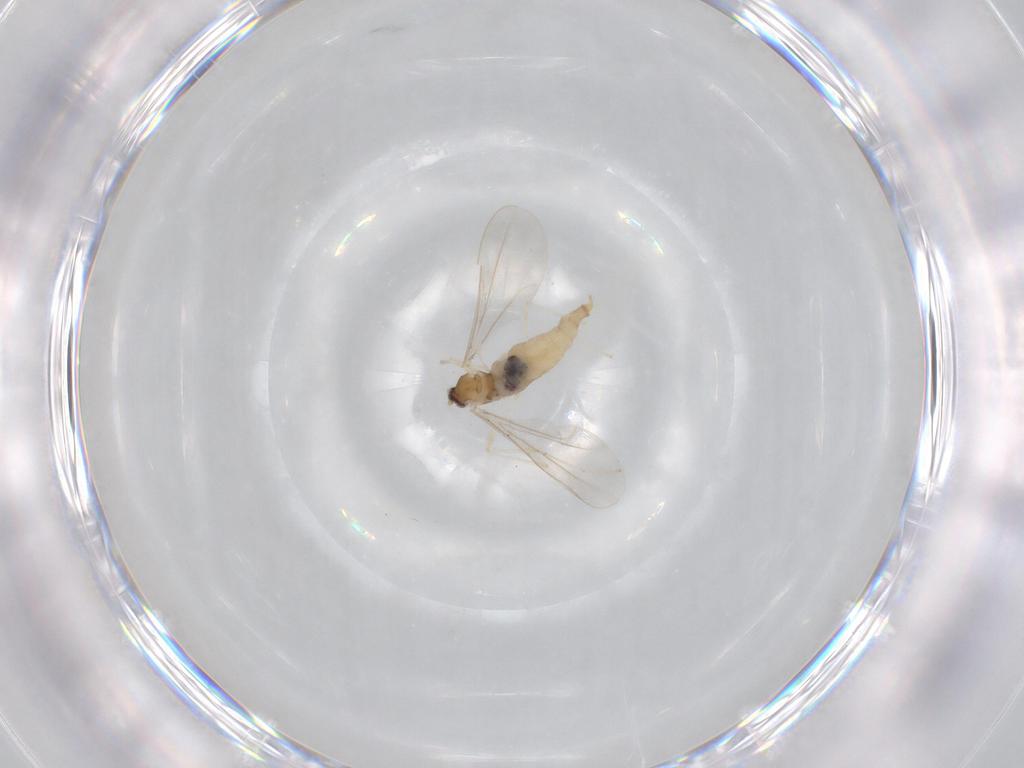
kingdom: Animalia
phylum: Arthropoda
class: Insecta
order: Diptera
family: Cecidomyiidae
